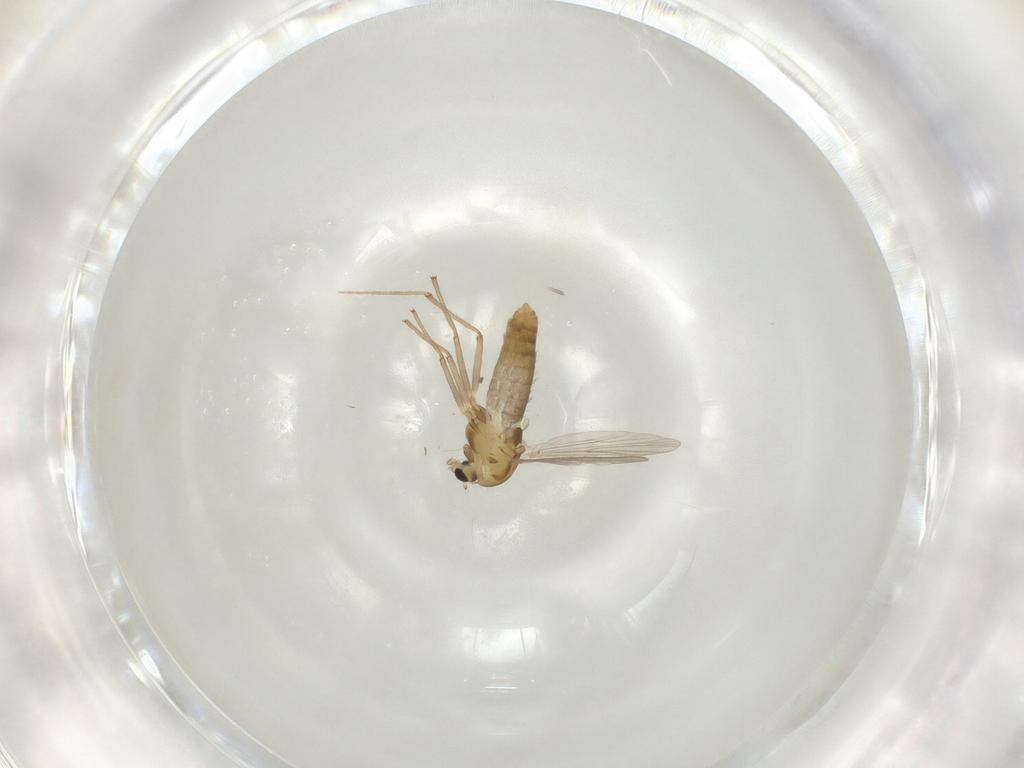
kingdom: Animalia
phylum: Arthropoda
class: Insecta
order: Diptera
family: Chironomidae
